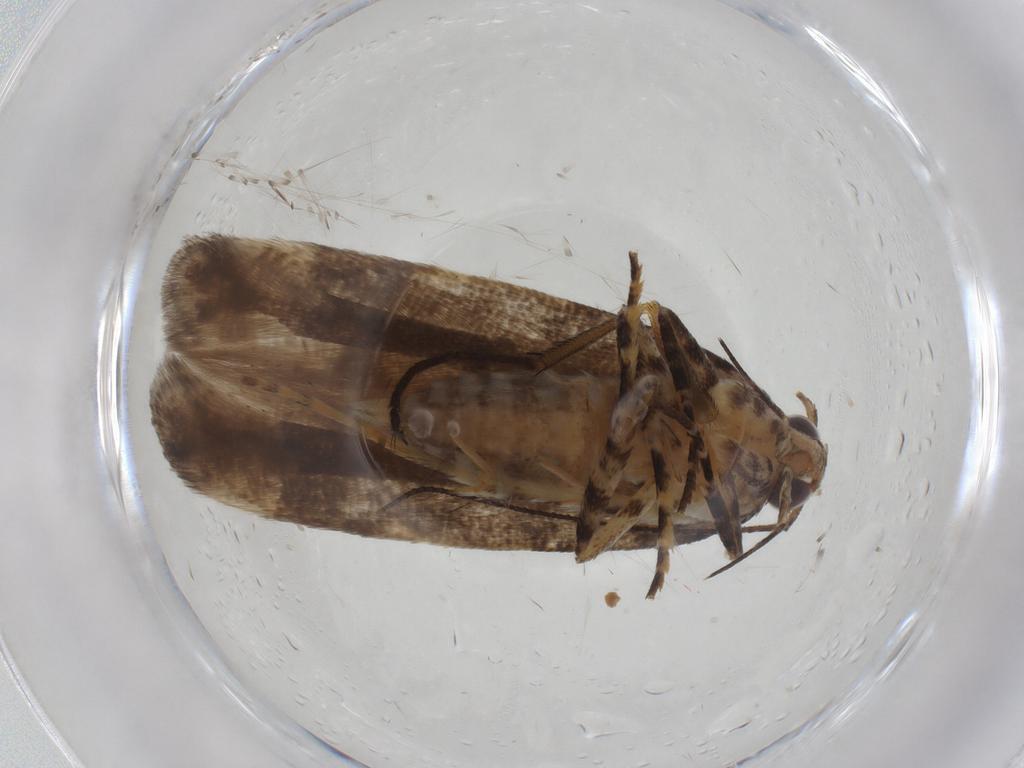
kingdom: Animalia
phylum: Arthropoda
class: Insecta
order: Lepidoptera
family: Gelechiidae
